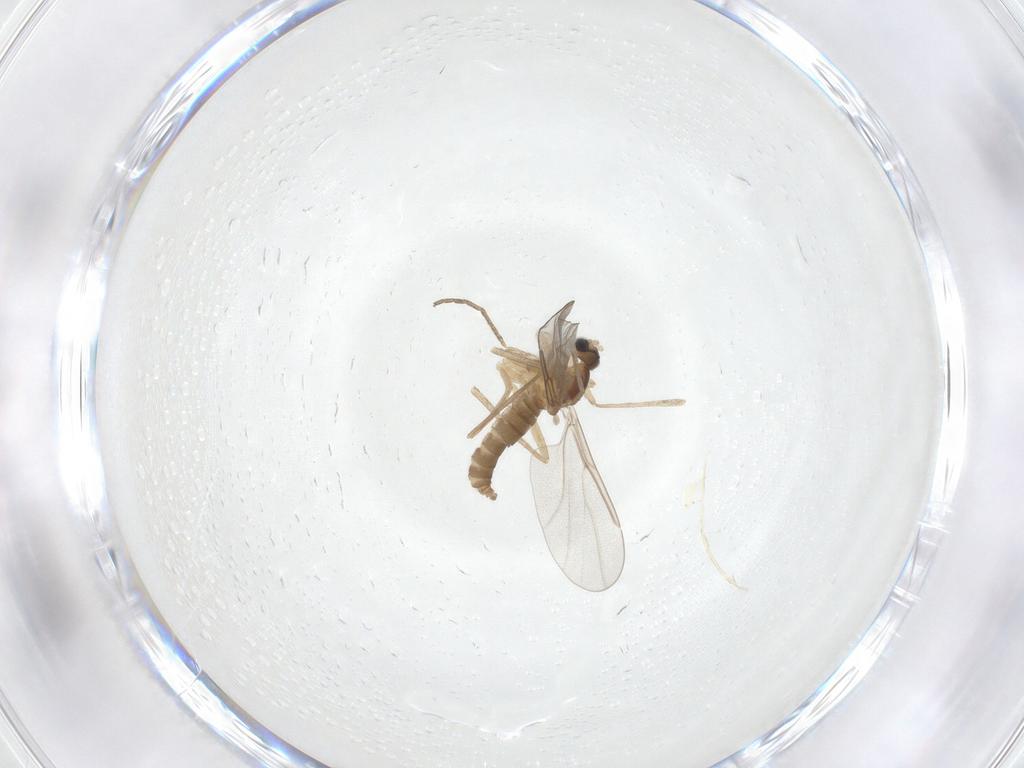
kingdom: Animalia
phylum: Arthropoda
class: Insecta
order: Diptera
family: Cecidomyiidae
